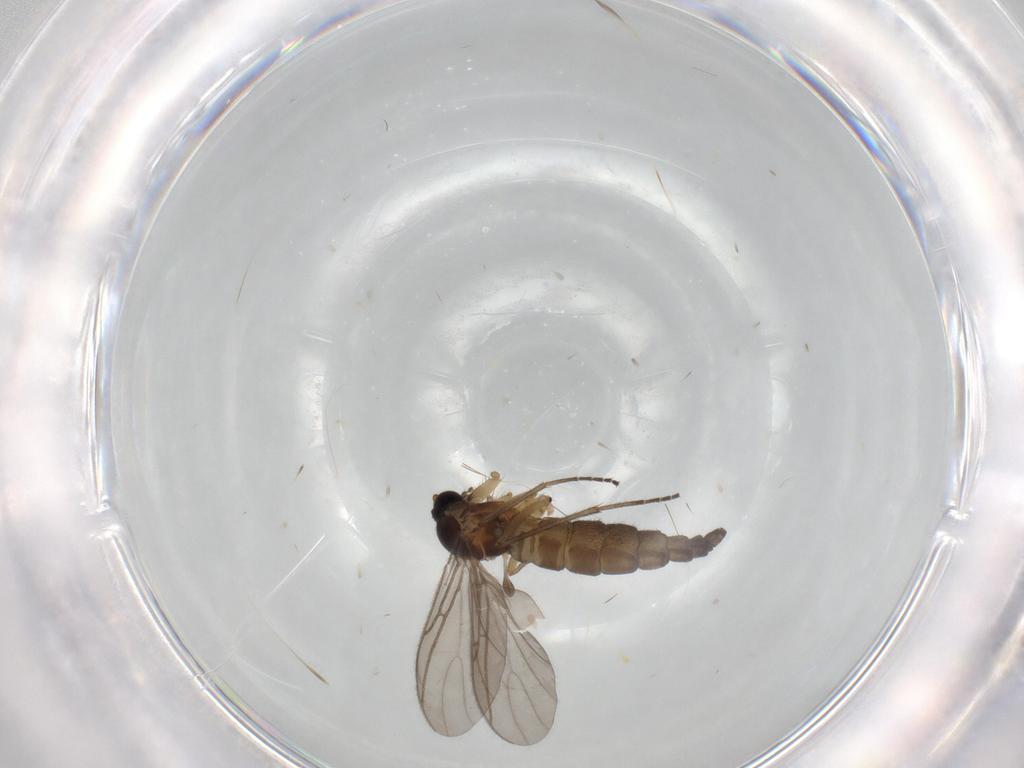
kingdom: Animalia
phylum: Arthropoda
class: Insecta
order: Diptera
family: Sciaridae
